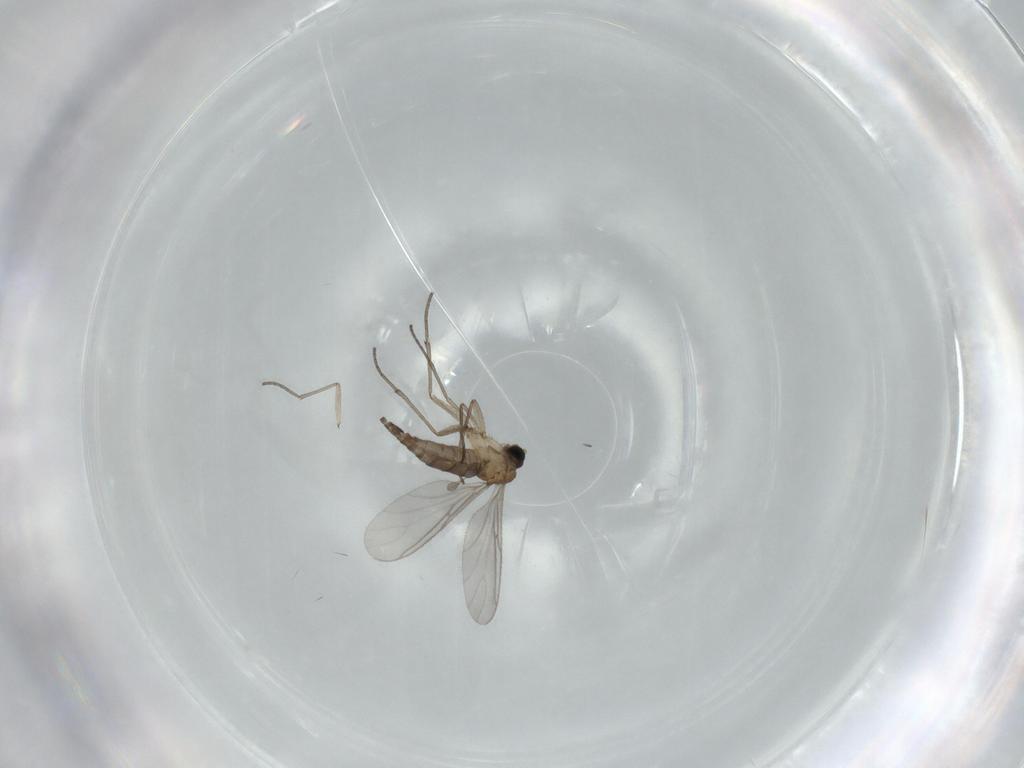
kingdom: Animalia
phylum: Arthropoda
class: Insecta
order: Diptera
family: Sciaridae
